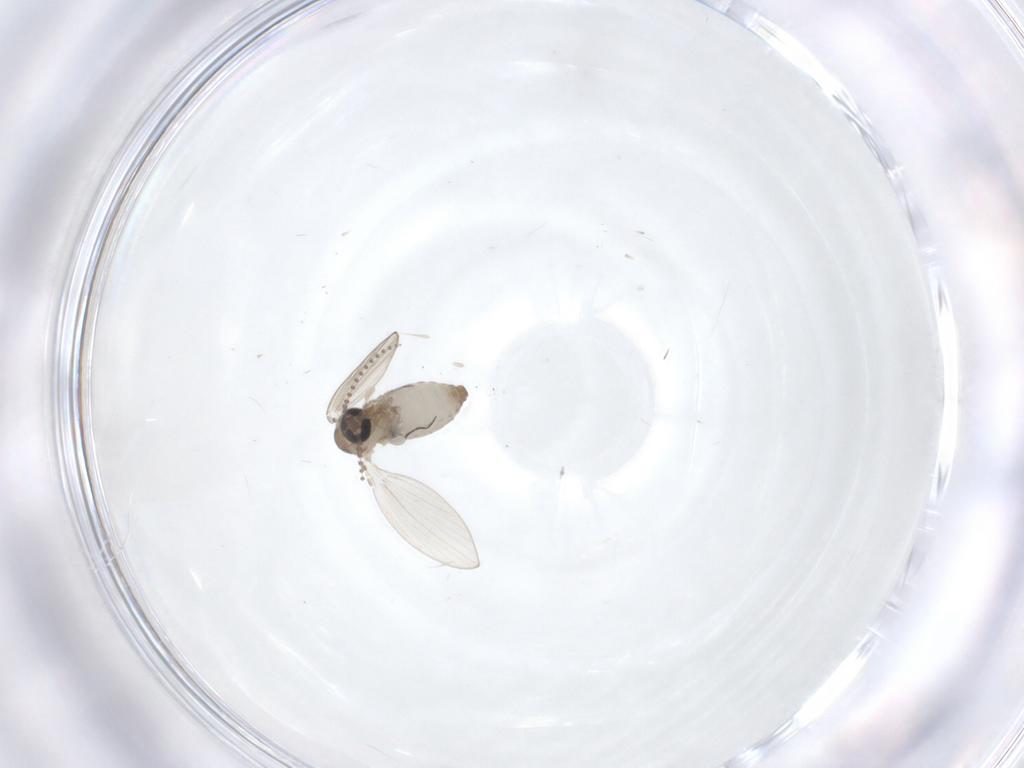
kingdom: Animalia
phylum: Arthropoda
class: Insecta
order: Diptera
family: Psychodidae
